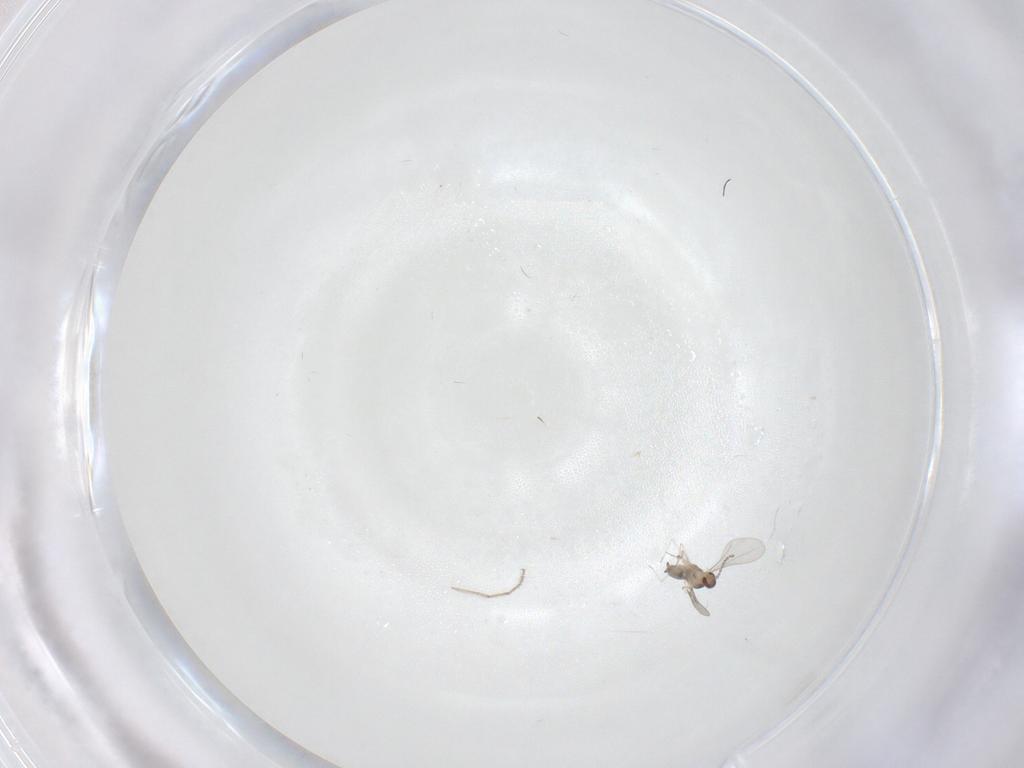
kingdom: Animalia
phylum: Arthropoda
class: Insecta
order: Diptera
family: Cecidomyiidae
